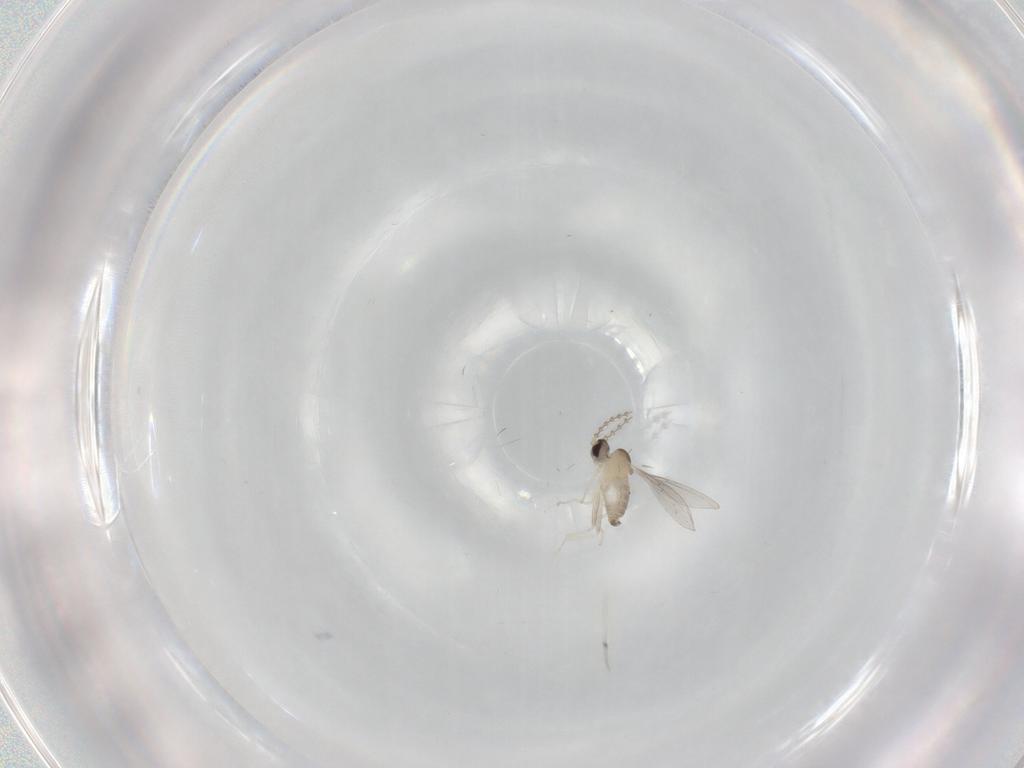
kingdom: Animalia
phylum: Arthropoda
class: Insecta
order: Diptera
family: Cecidomyiidae
